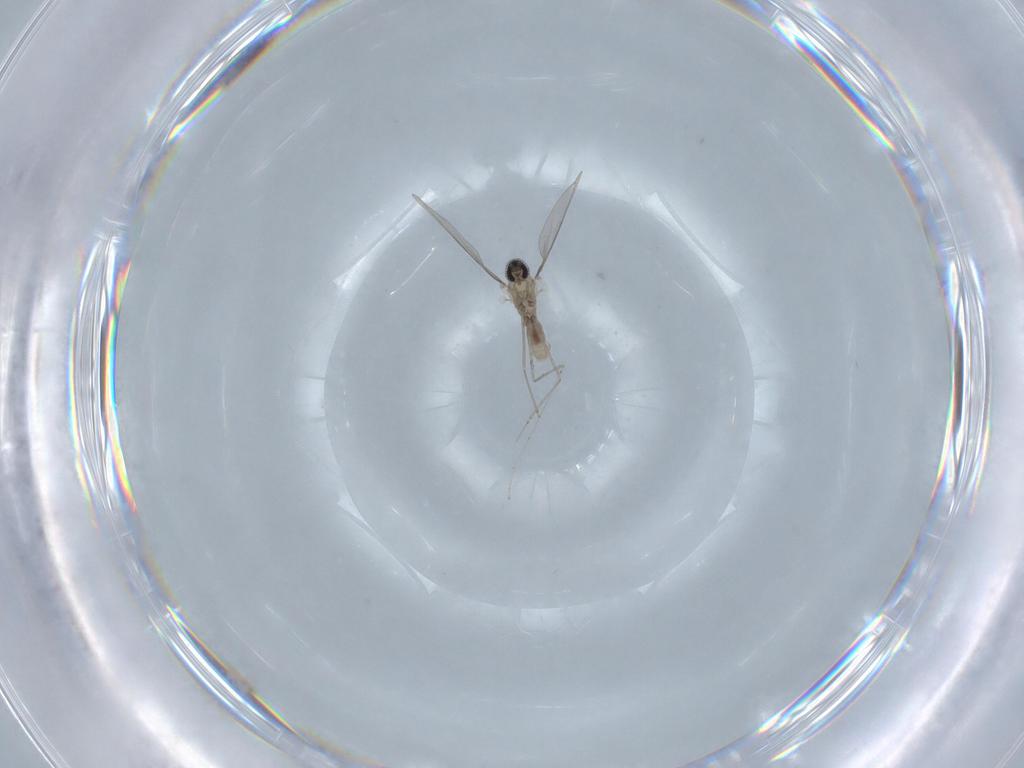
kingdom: Animalia
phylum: Arthropoda
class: Insecta
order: Diptera
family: Cecidomyiidae
